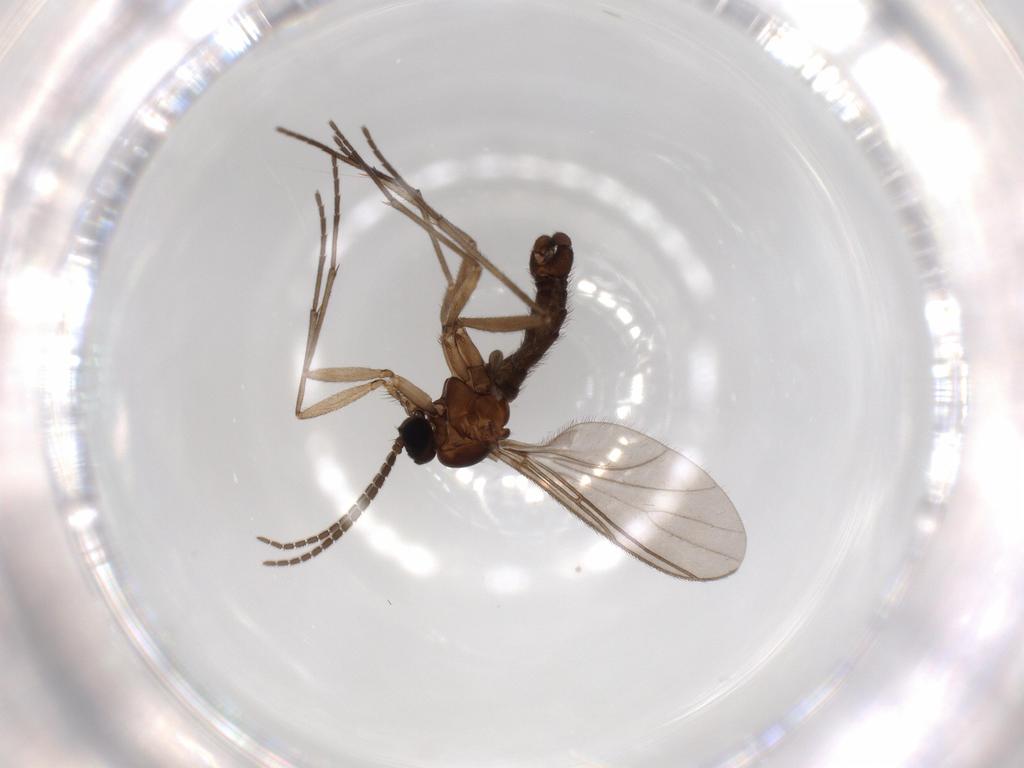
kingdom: Animalia
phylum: Arthropoda
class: Insecta
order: Diptera
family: Sciaridae
